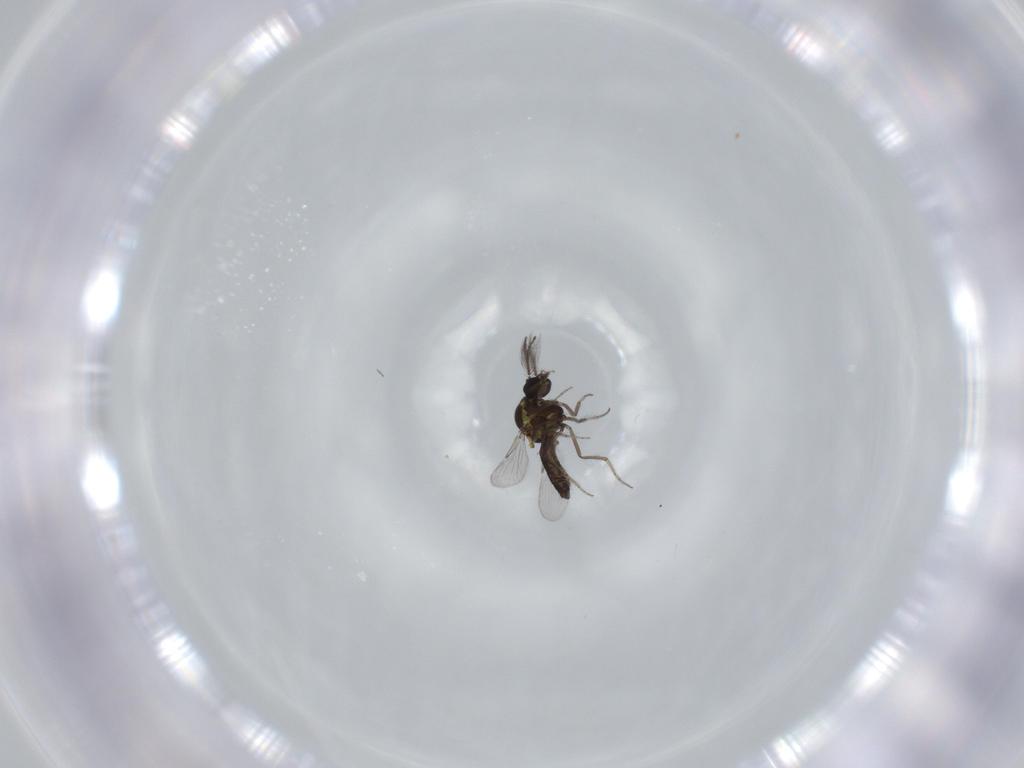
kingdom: Animalia
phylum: Arthropoda
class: Insecta
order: Diptera
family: Ceratopogonidae
